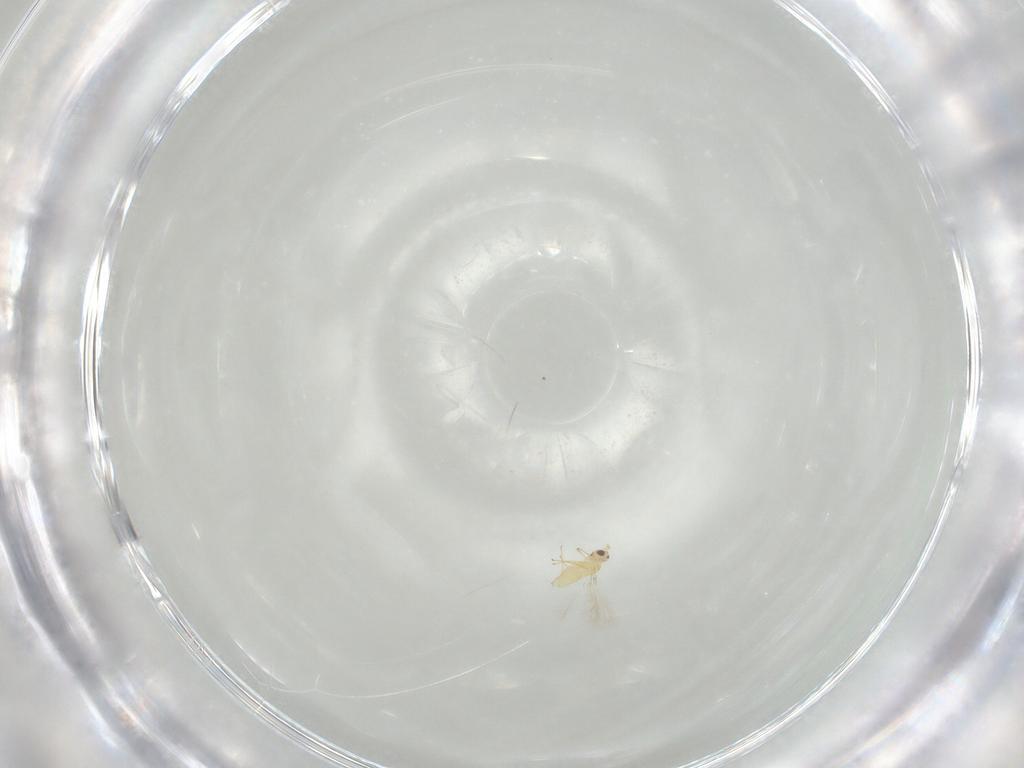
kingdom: Animalia
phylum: Arthropoda
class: Insecta
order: Hymenoptera
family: Mymaridae
